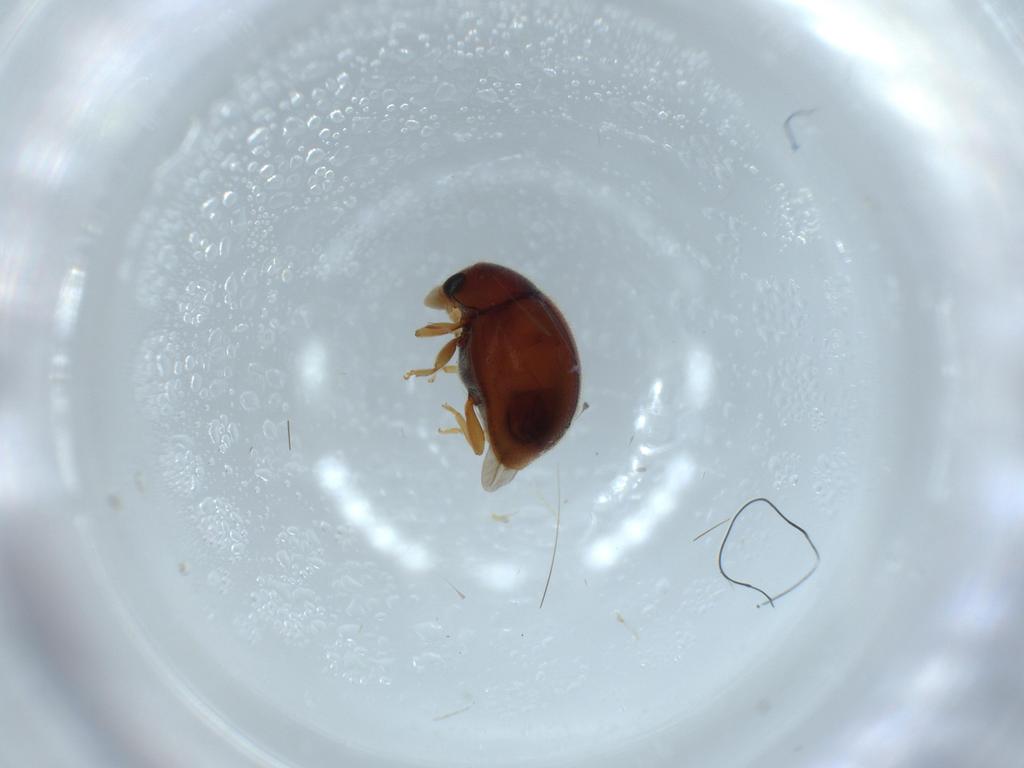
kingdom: Animalia
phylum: Arthropoda
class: Insecta
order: Coleoptera
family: Coccinellidae
